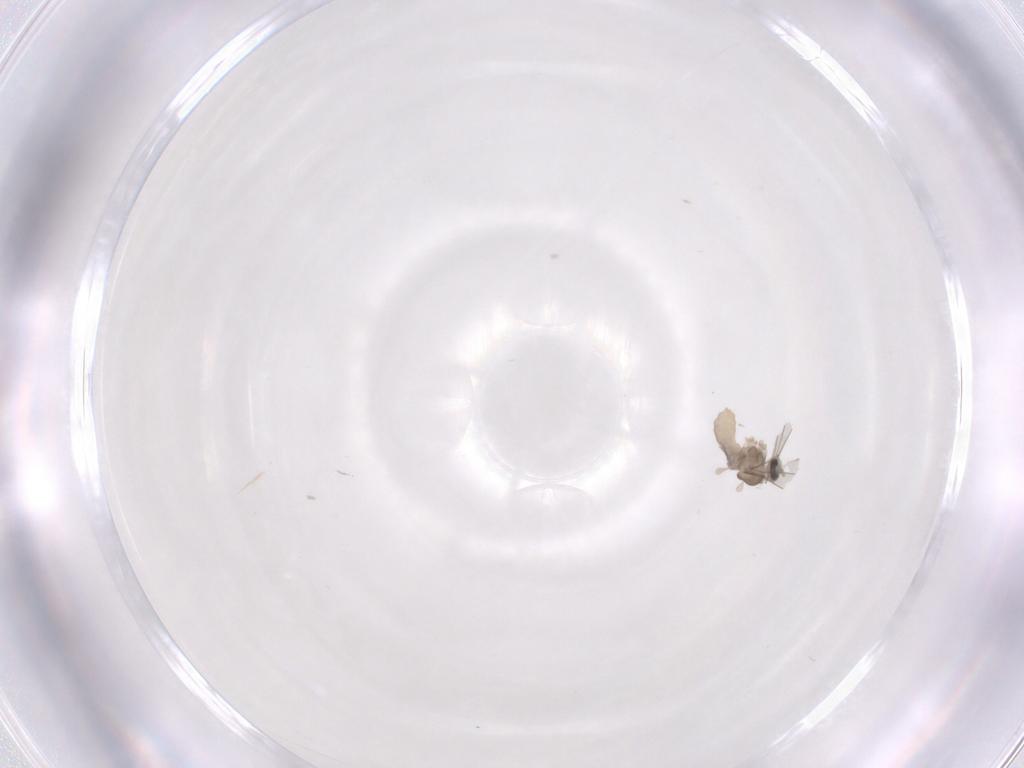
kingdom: Animalia
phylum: Arthropoda
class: Insecta
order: Diptera
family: Cecidomyiidae
